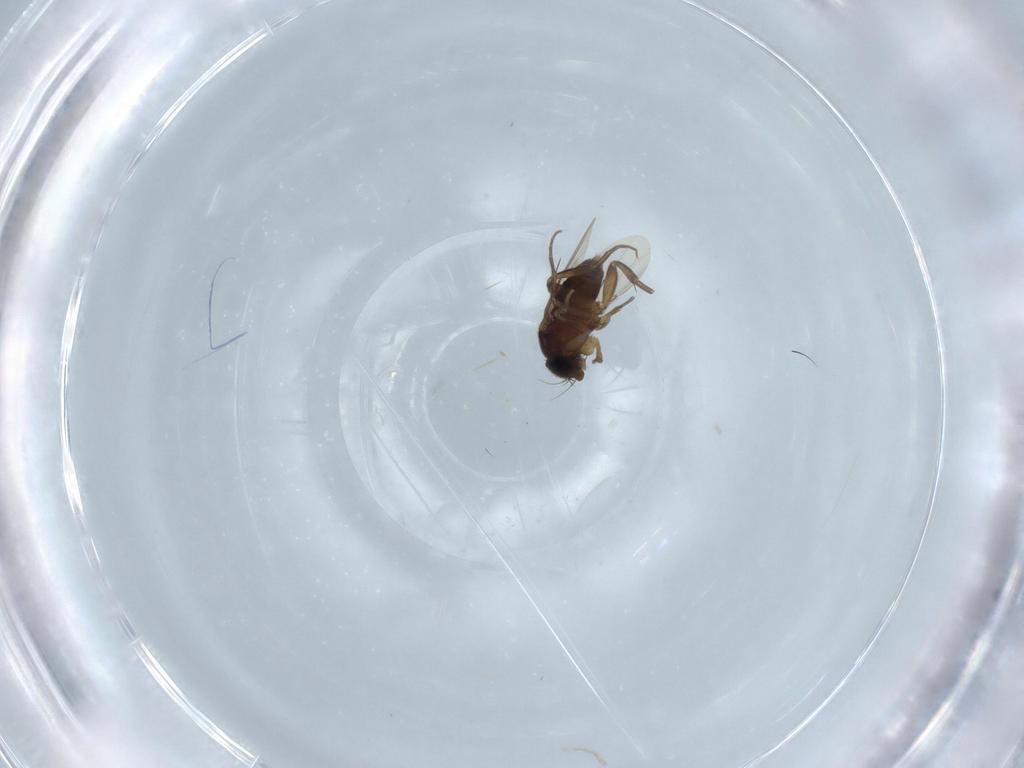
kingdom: Animalia
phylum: Arthropoda
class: Insecta
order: Diptera
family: Phoridae
